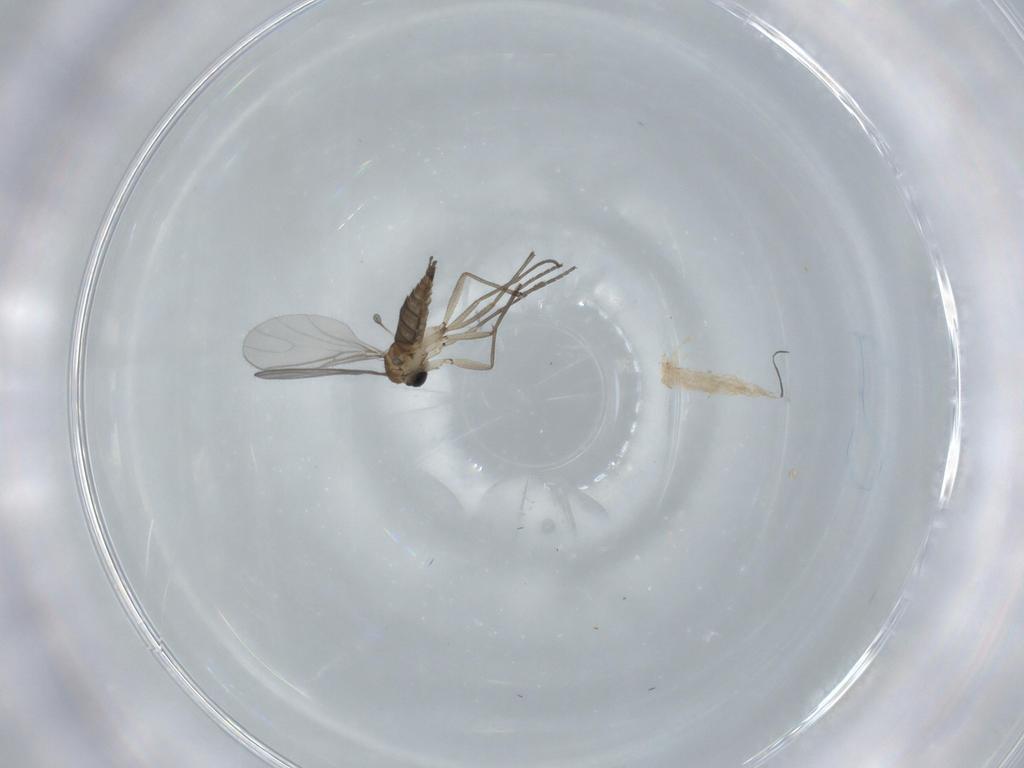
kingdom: Animalia
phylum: Arthropoda
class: Insecta
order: Diptera
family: Sciaridae
